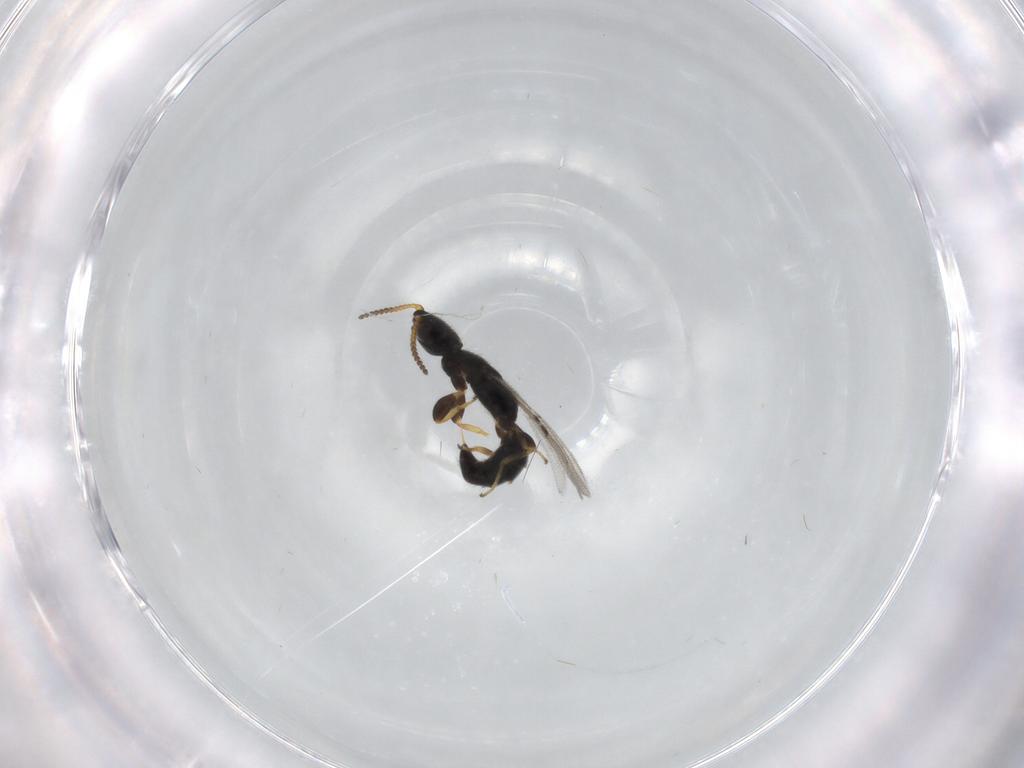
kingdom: Animalia
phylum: Arthropoda
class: Insecta
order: Hymenoptera
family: Bethylidae
